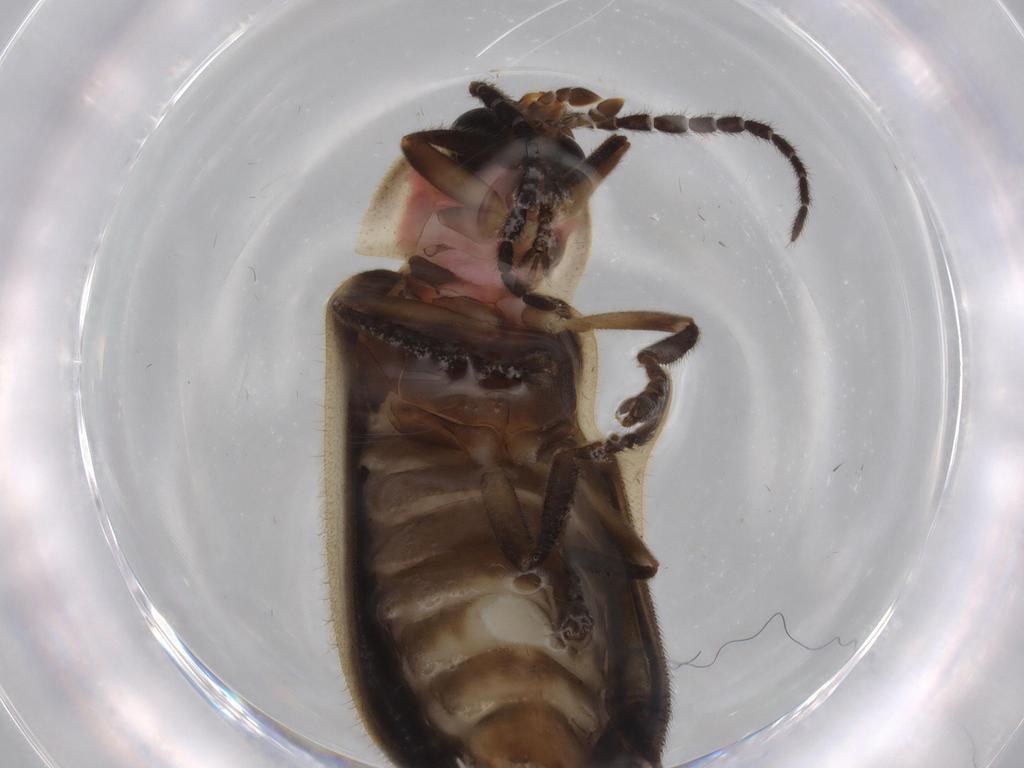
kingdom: Animalia
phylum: Arthropoda
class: Insecta
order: Coleoptera
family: Lampyridae
